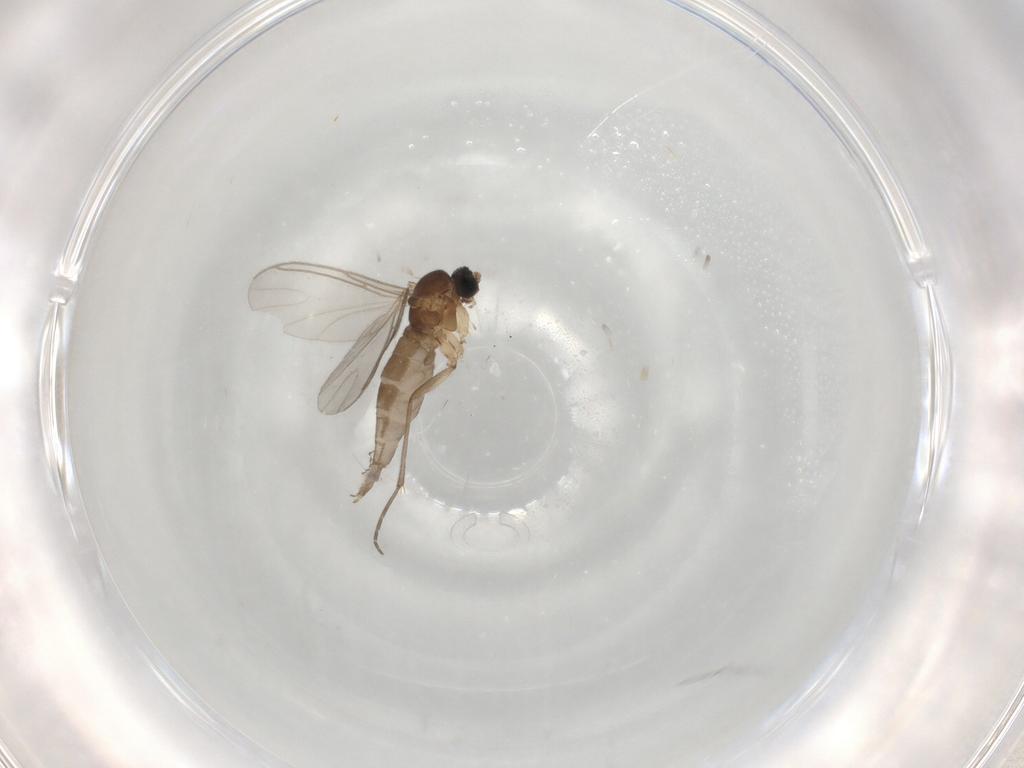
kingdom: Animalia
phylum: Arthropoda
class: Insecta
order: Diptera
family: Sciaridae
